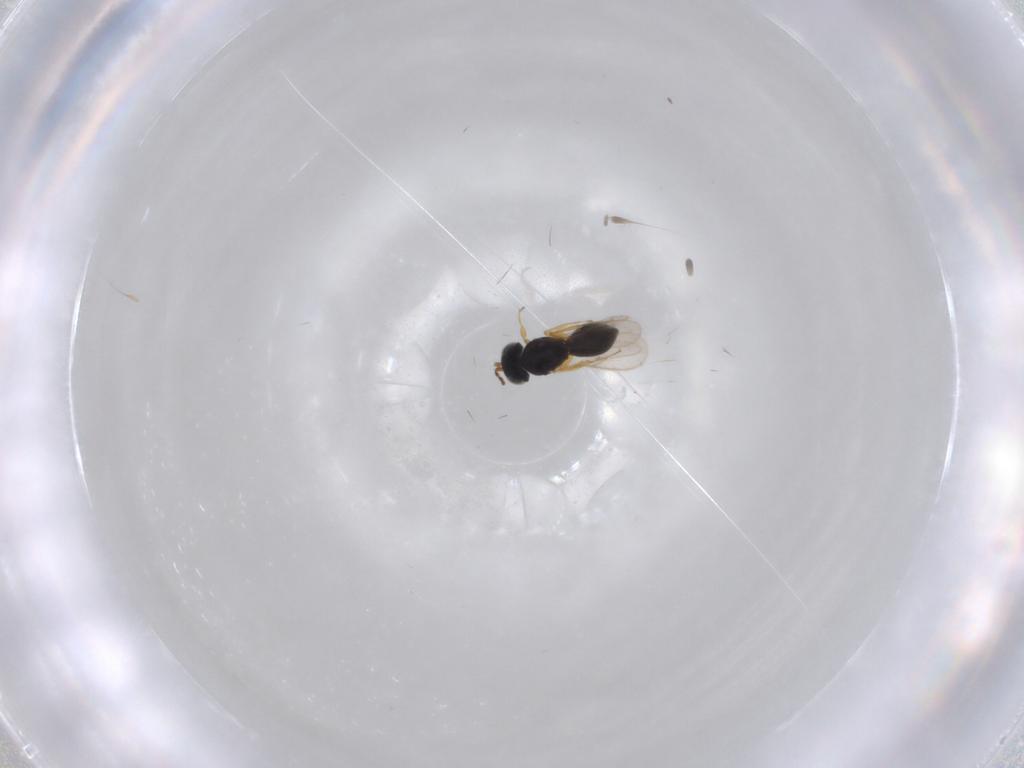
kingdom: Animalia
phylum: Arthropoda
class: Insecta
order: Hymenoptera
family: Scelionidae
